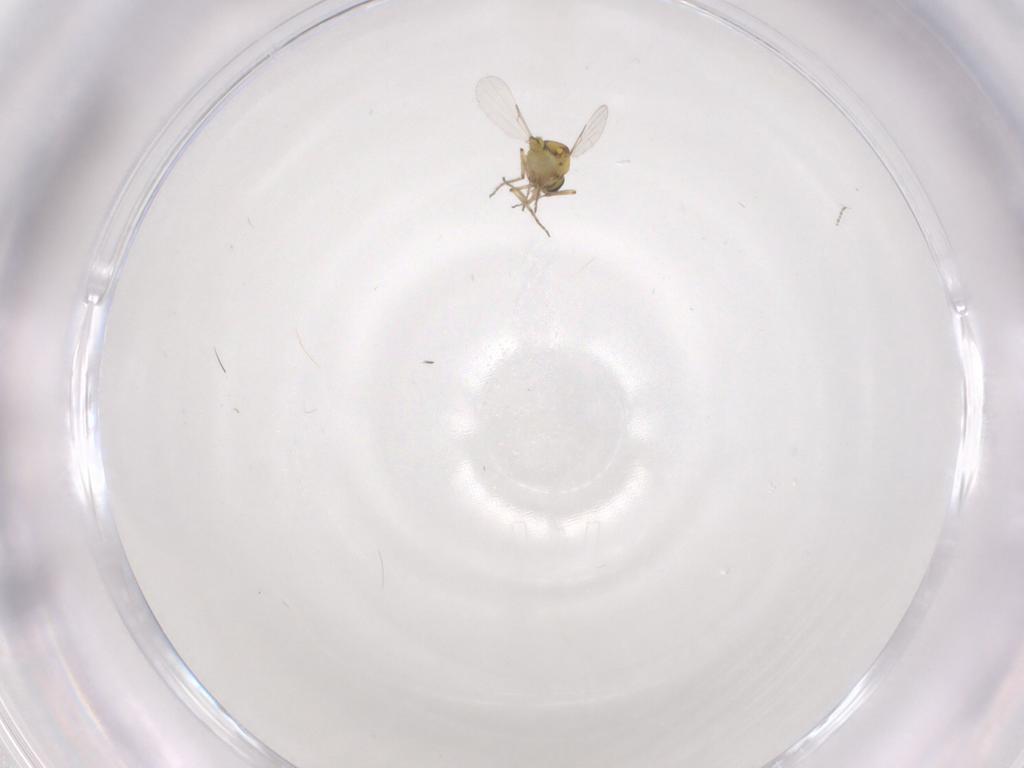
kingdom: Animalia
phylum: Arthropoda
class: Insecta
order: Diptera
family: Ceratopogonidae
